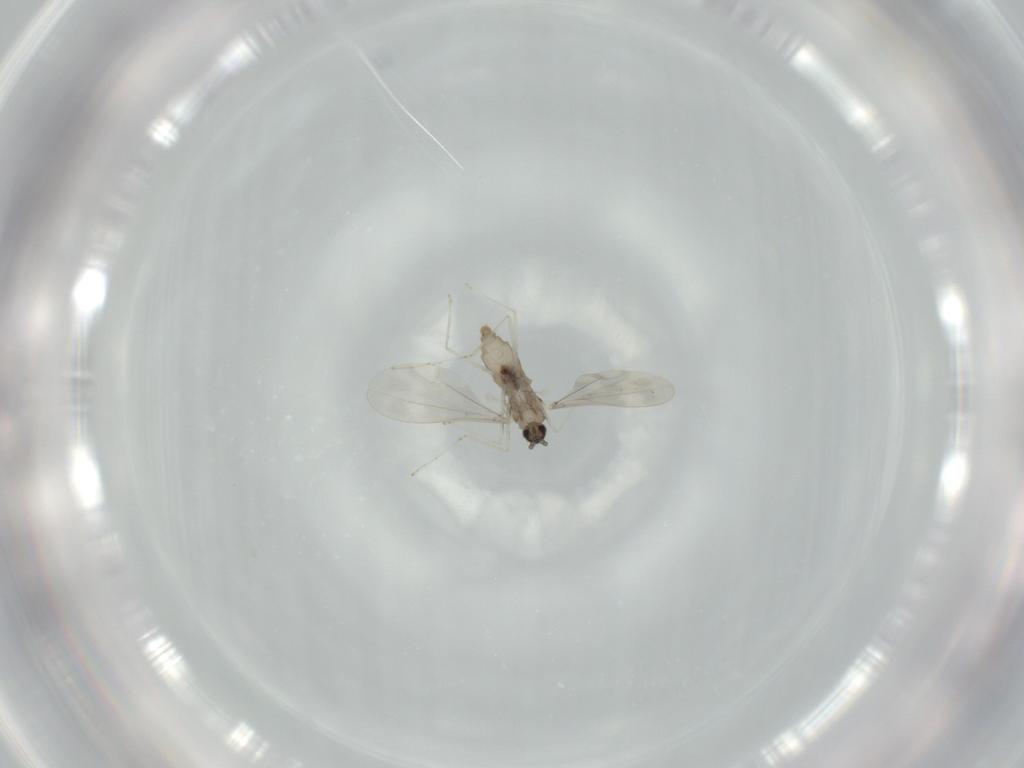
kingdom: Animalia
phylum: Arthropoda
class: Insecta
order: Diptera
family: Cecidomyiidae
